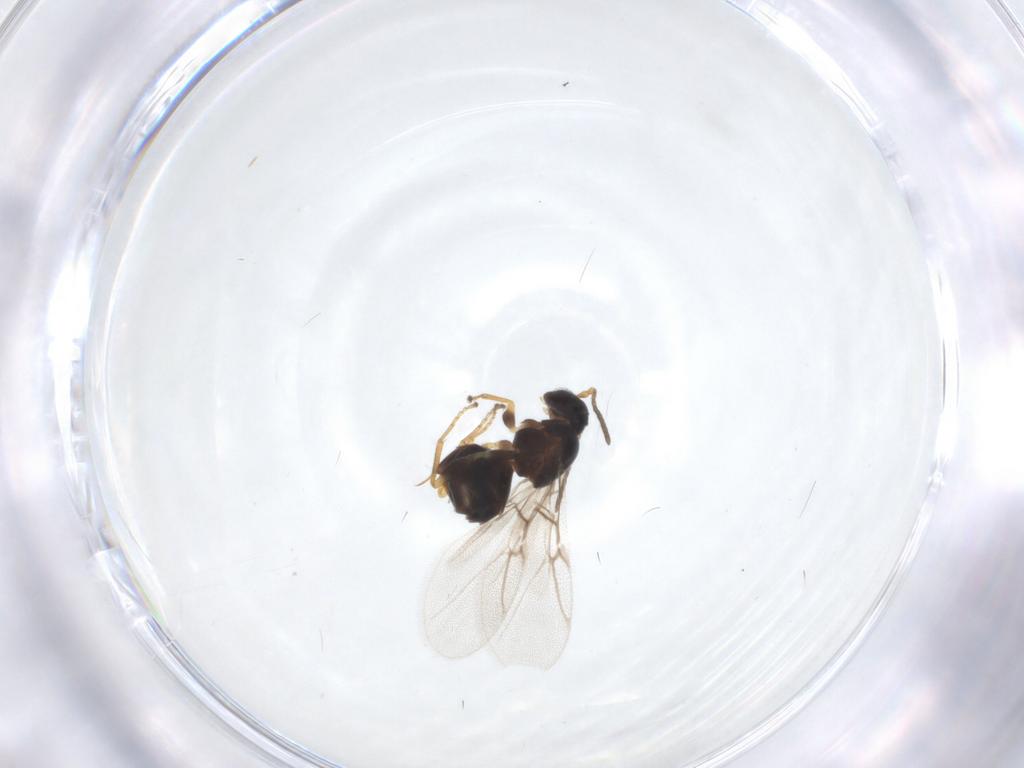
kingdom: Animalia
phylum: Arthropoda
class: Insecta
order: Hymenoptera
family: Cynipidae
